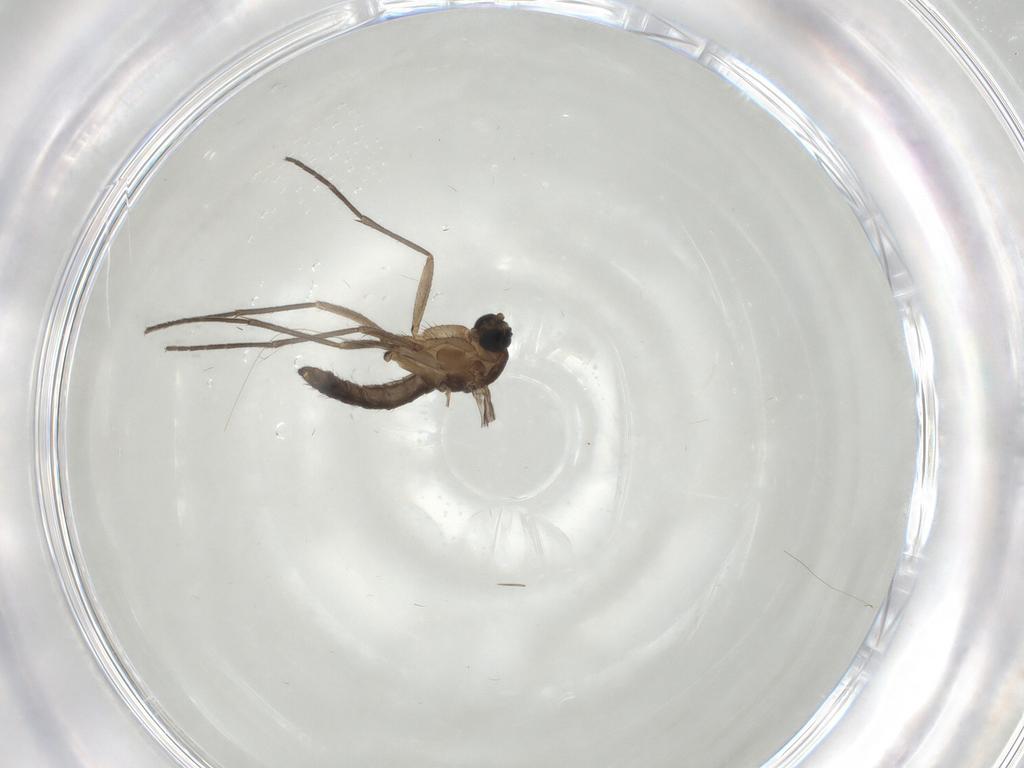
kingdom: Animalia
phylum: Arthropoda
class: Insecta
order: Diptera
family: Sciaridae
